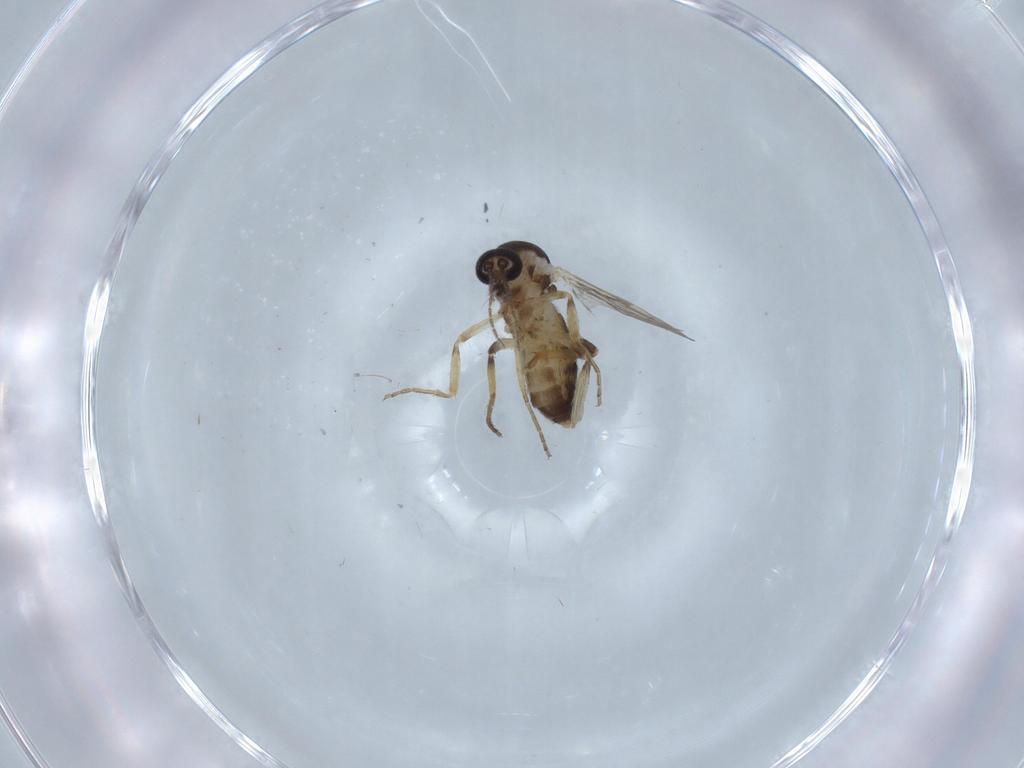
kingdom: Animalia
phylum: Arthropoda
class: Insecta
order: Diptera
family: Ceratopogonidae
